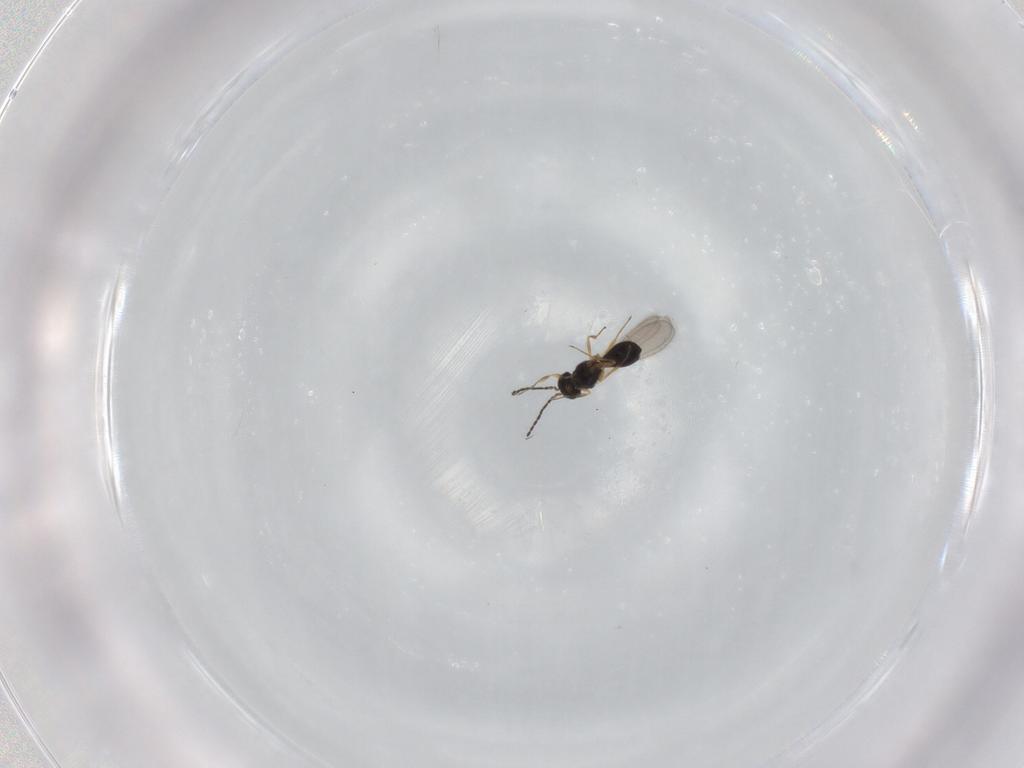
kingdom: Animalia
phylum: Arthropoda
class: Insecta
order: Hymenoptera
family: Scelionidae
